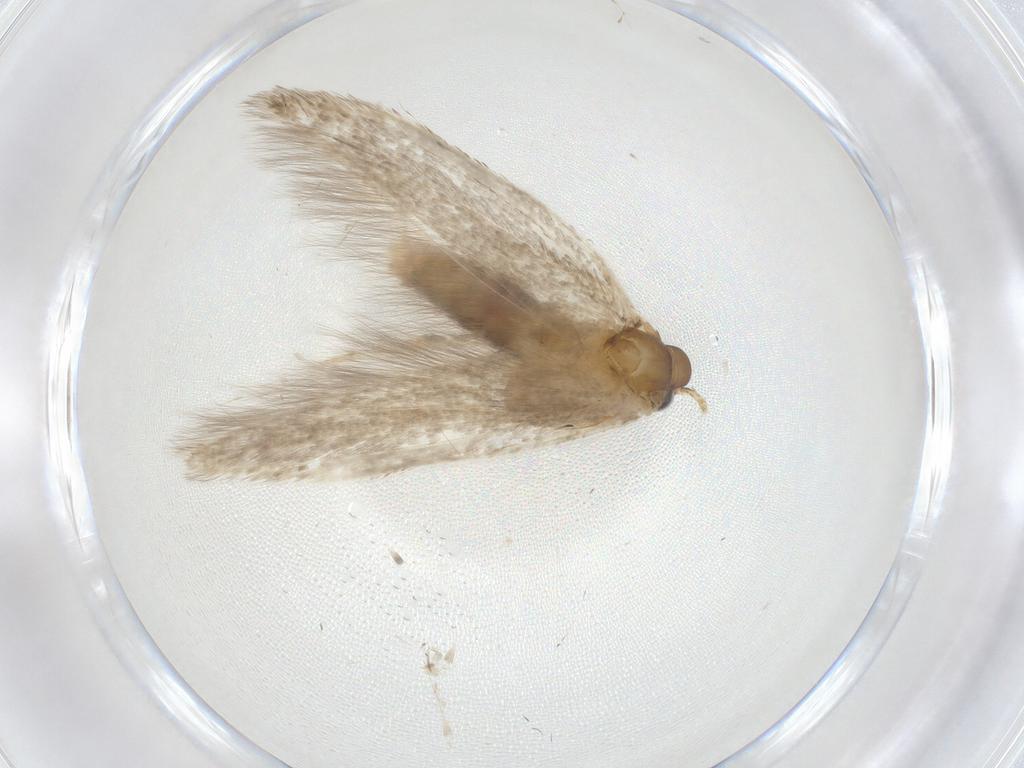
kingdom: Animalia
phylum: Arthropoda
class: Insecta
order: Lepidoptera
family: Blastobasidae
